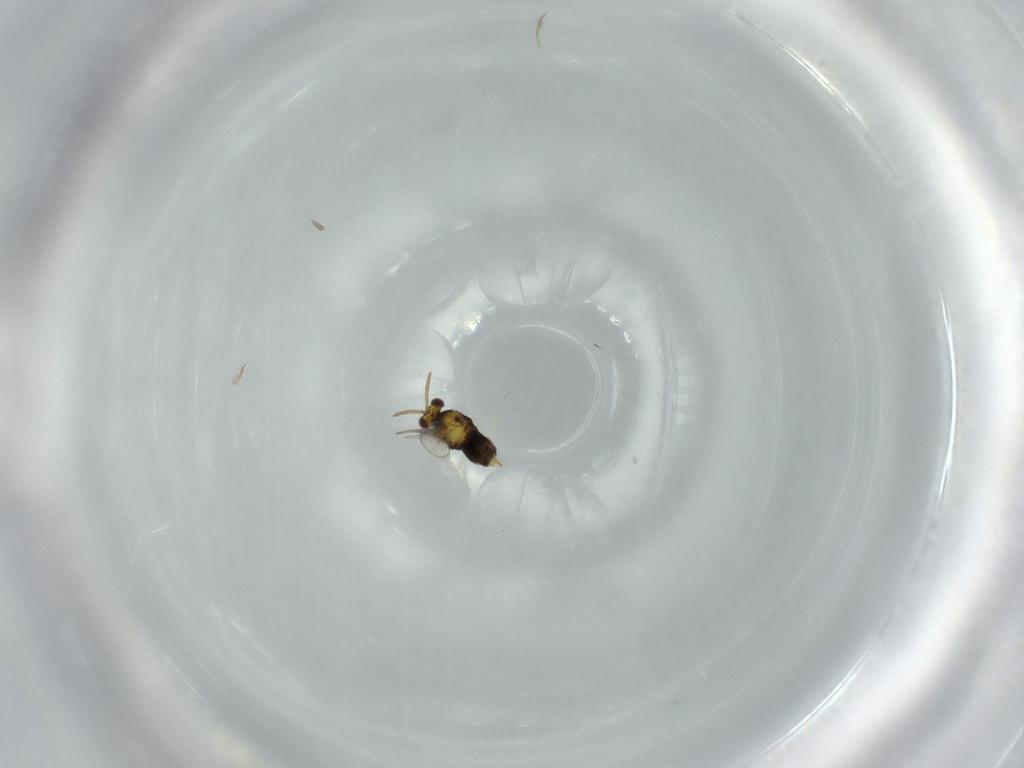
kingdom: Animalia
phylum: Arthropoda
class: Insecta
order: Hymenoptera
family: Aphelinidae
